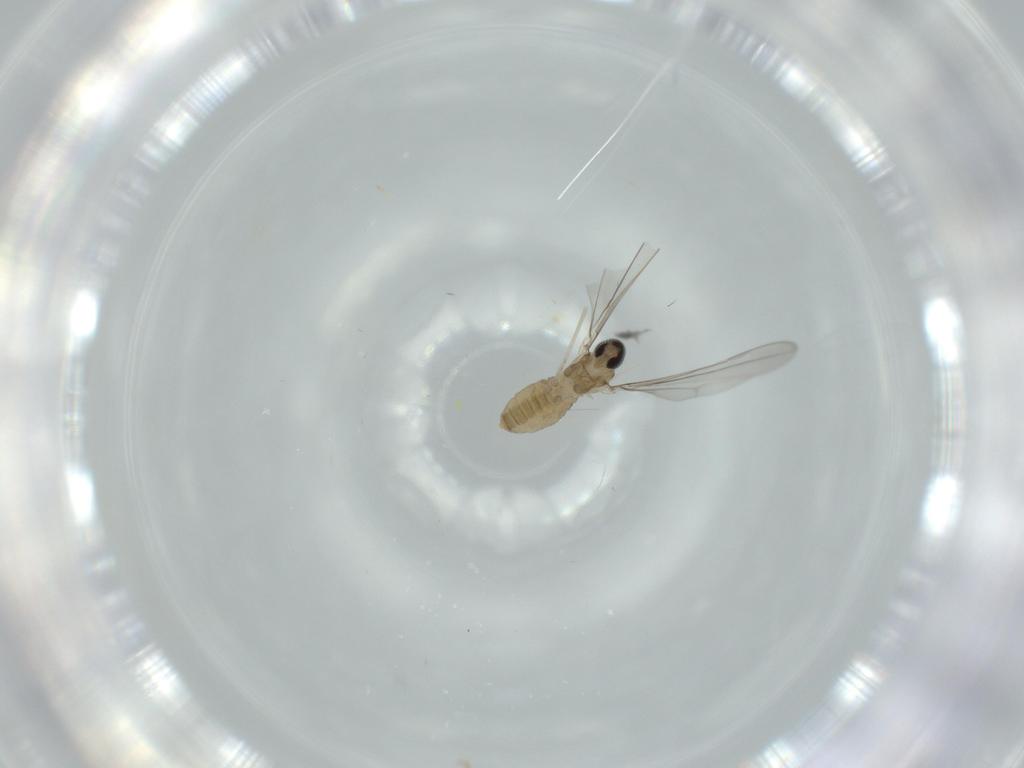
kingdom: Animalia
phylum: Arthropoda
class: Insecta
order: Diptera
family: Cecidomyiidae
